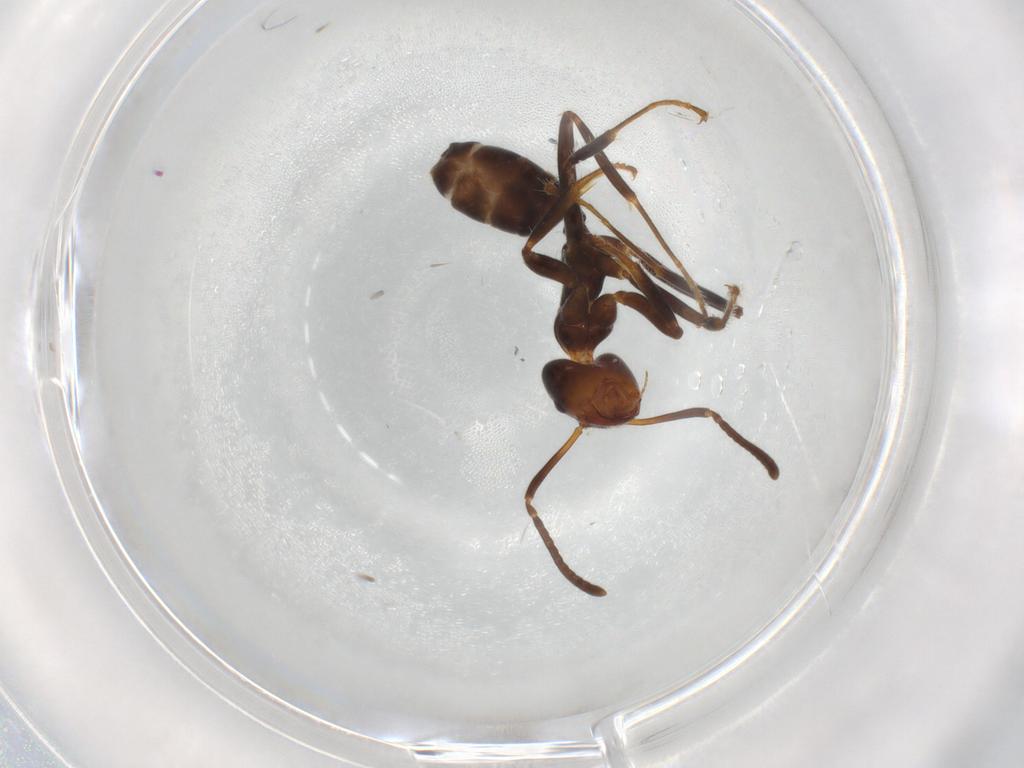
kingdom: Animalia
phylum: Arthropoda
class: Insecta
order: Hymenoptera
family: Formicidae
